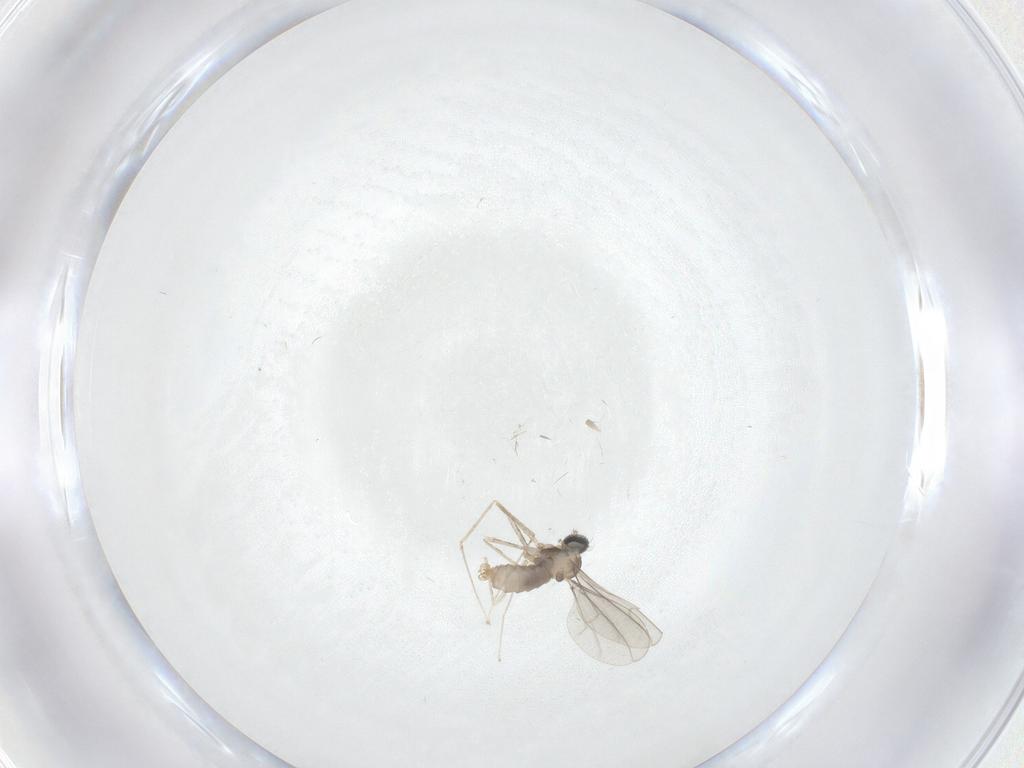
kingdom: Animalia
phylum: Arthropoda
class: Insecta
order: Diptera
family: Cecidomyiidae
